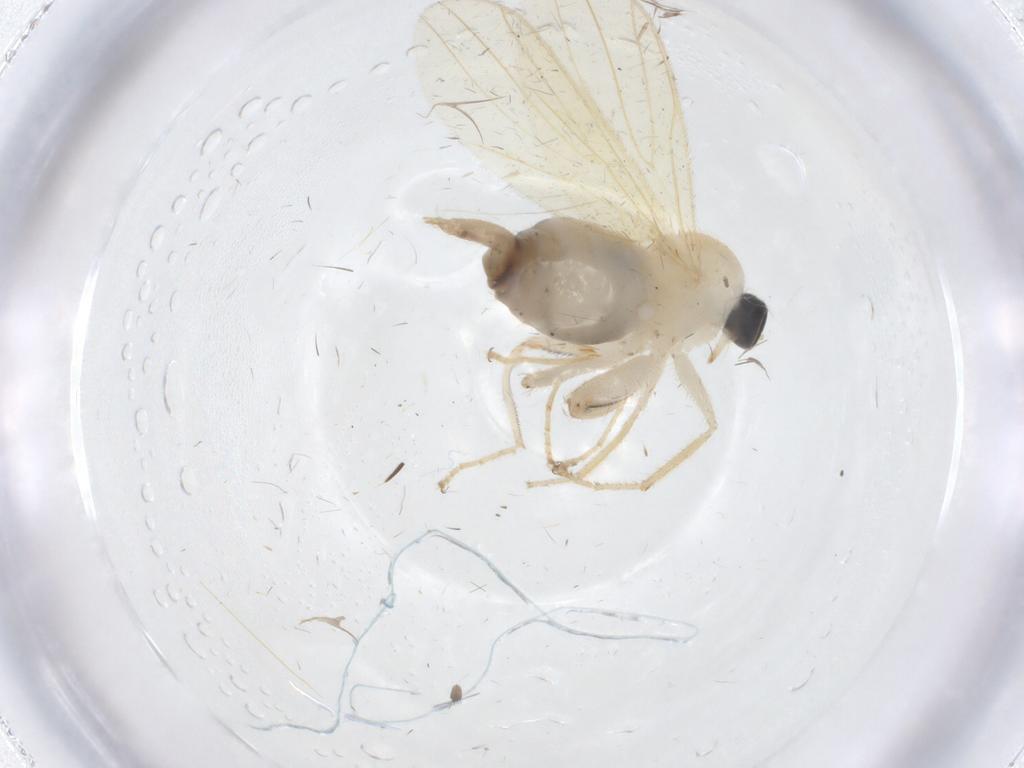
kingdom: Animalia
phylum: Arthropoda
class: Insecta
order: Diptera
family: Hybotidae
